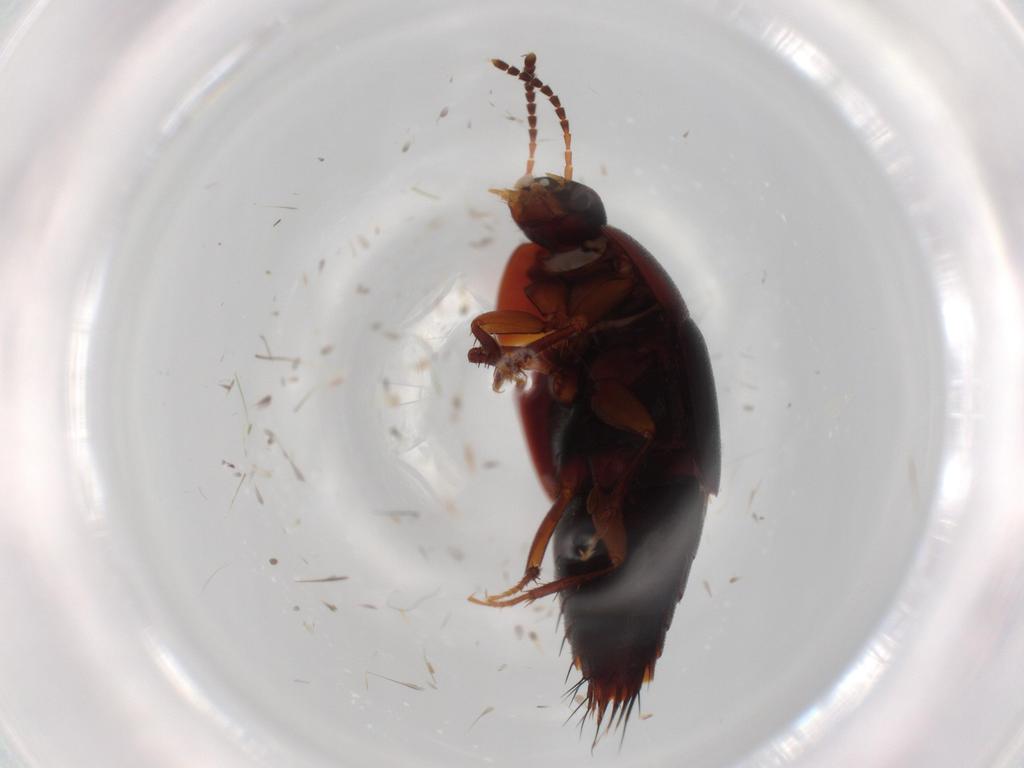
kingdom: Animalia
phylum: Arthropoda
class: Insecta
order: Coleoptera
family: Staphylinidae
